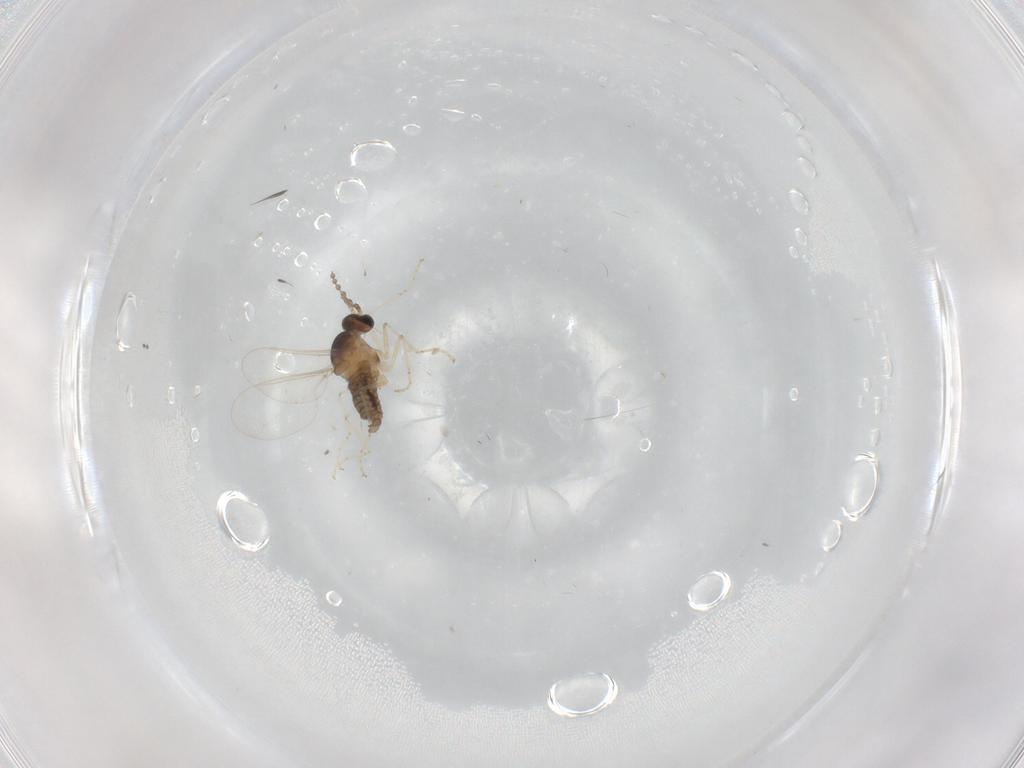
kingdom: Animalia
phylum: Arthropoda
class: Insecta
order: Diptera
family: Cecidomyiidae
